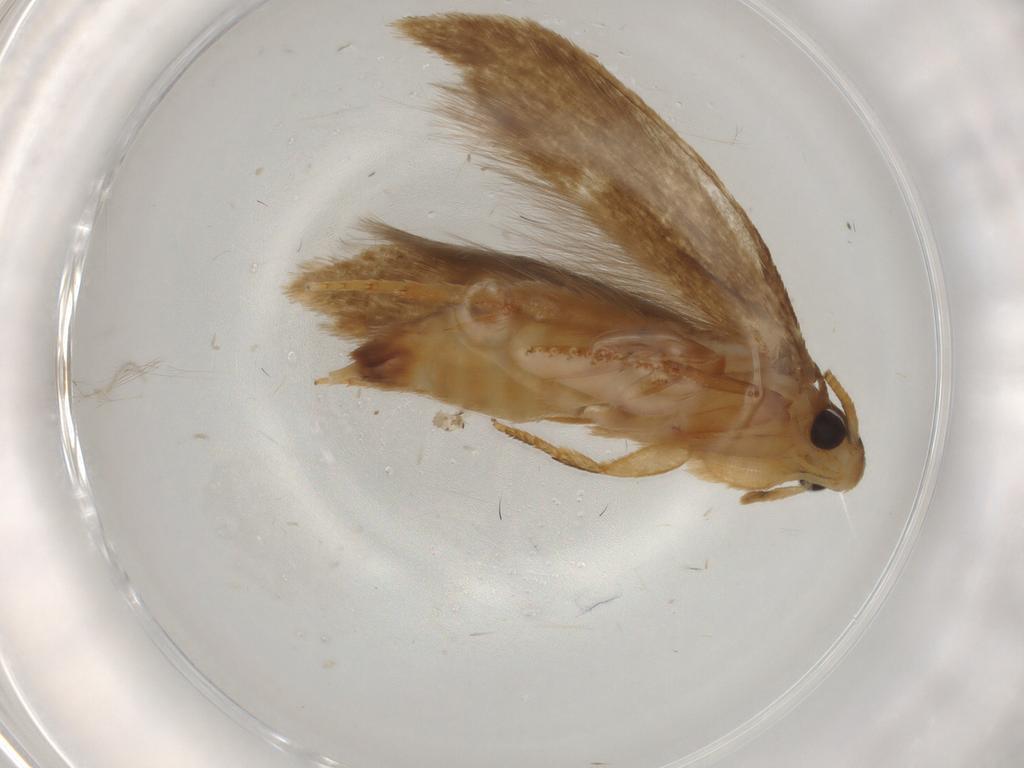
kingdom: Animalia
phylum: Arthropoda
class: Insecta
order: Lepidoptera
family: Tineidae
